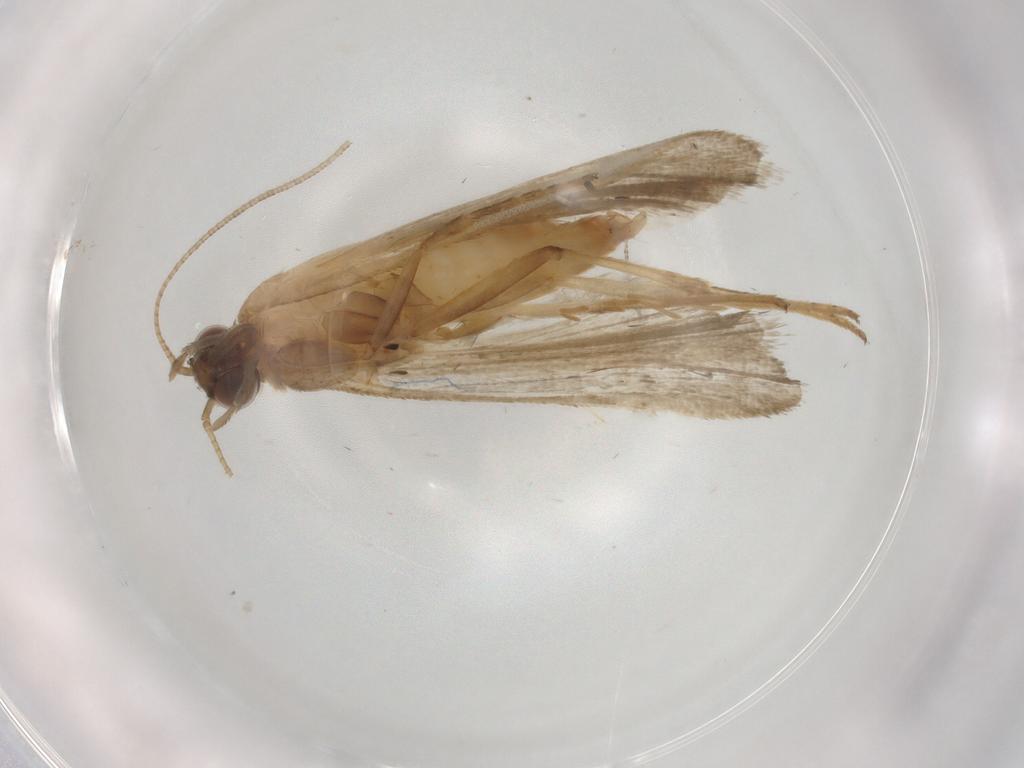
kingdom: Animalia
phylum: Arthropoda
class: Insecta
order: Lepidoptera
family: Noctuidae
